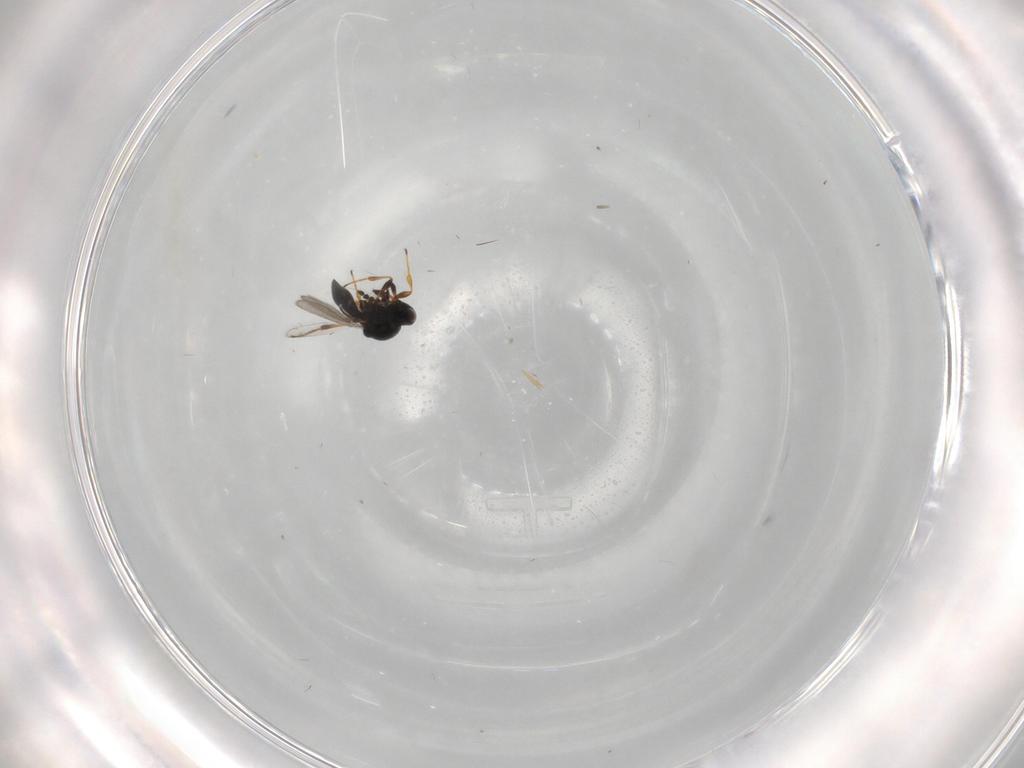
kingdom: Animalia
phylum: Arthropoda
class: Insecta
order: Hymenoptera
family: Platygastridae
